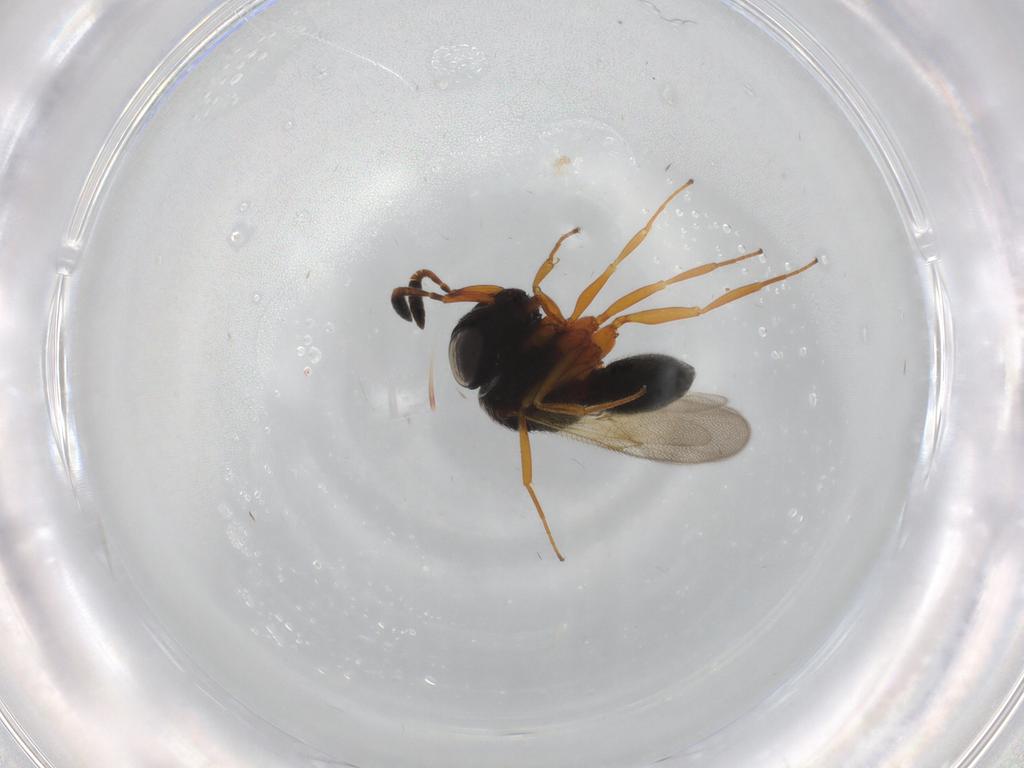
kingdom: Animalia
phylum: Arthropoda
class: Insecta
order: Hymenoptera
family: Scelionidae
